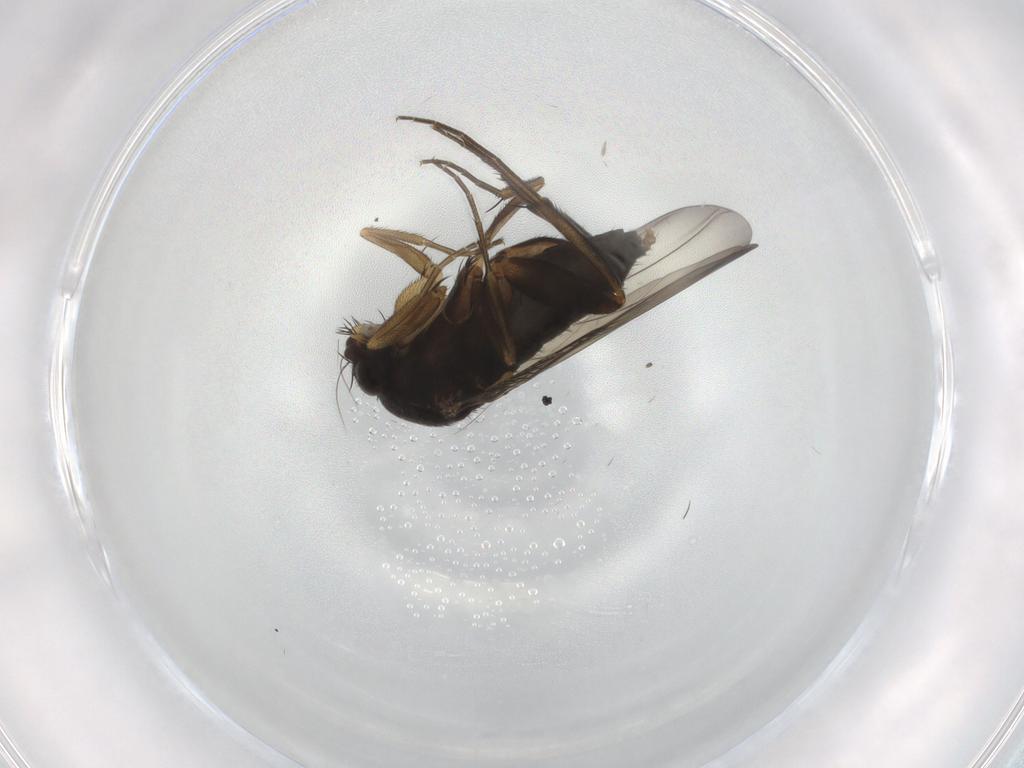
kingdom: Animalia
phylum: Arthropoda
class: Insecta
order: Diptera
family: Phoridae
